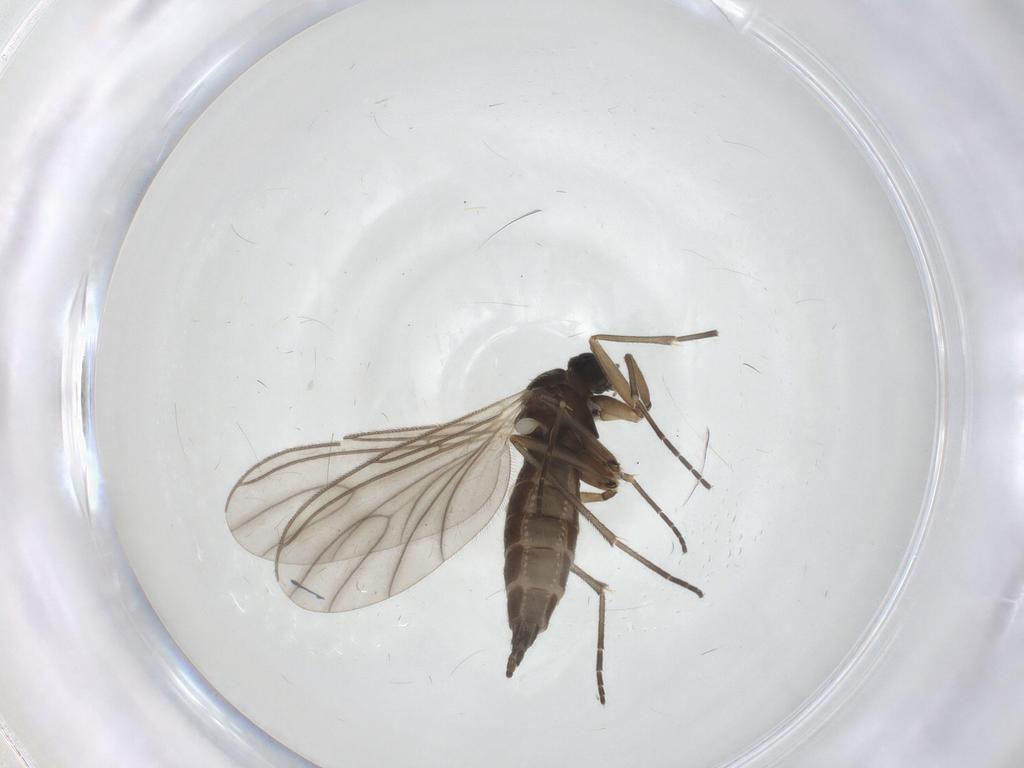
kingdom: Animalia
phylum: Arthropoda
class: Insecta
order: Diptera
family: Sciaridae
